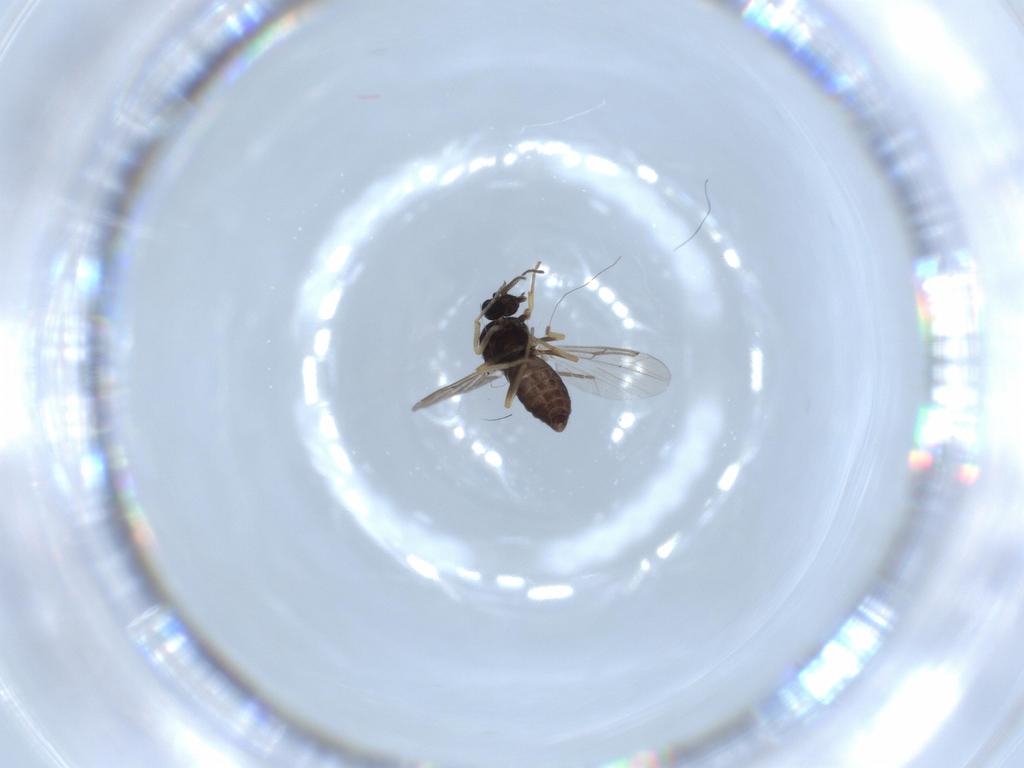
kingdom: Animalia
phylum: Arthropoda
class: Insecta
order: Diptera
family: Ceratopogonidae
